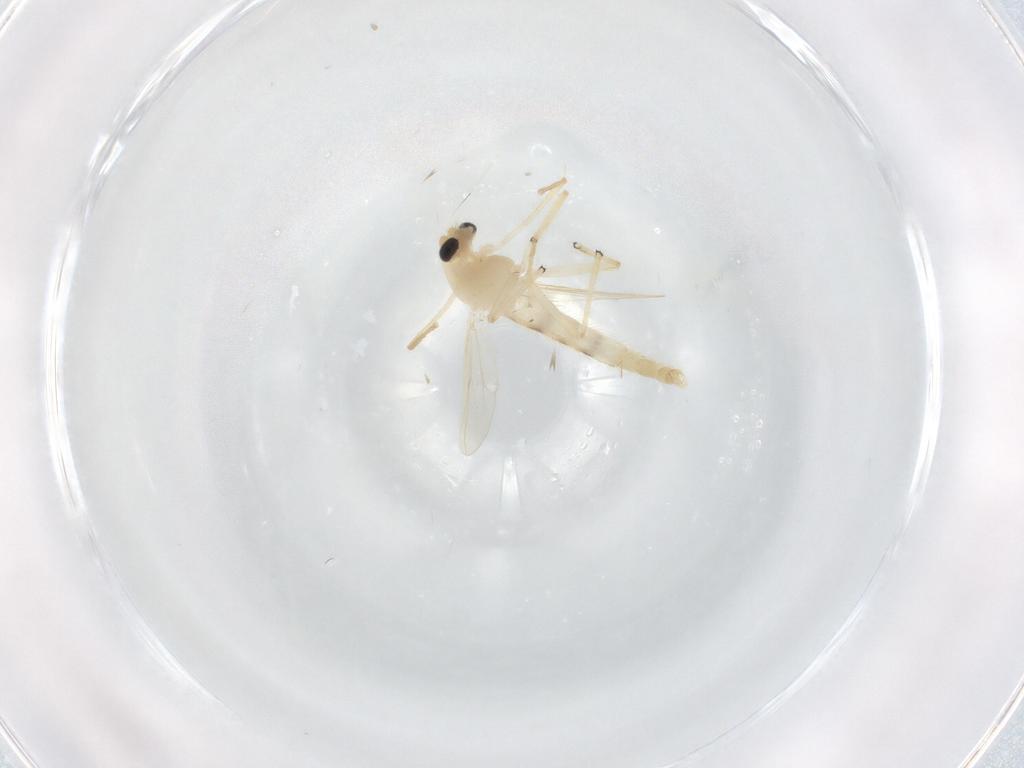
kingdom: Animalia
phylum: Arthropoda
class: Insecta
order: Diptera
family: Chironomidae
